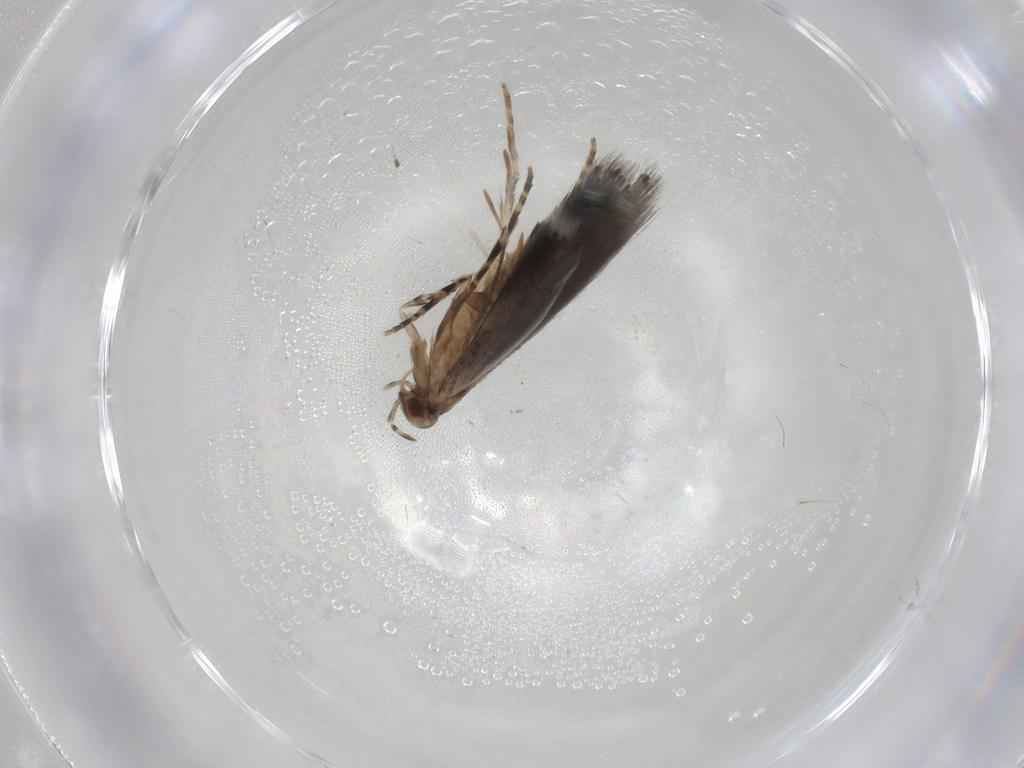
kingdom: Animalia
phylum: Arthropoda
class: Insecta
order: Lepidoptera
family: Elachistidae
